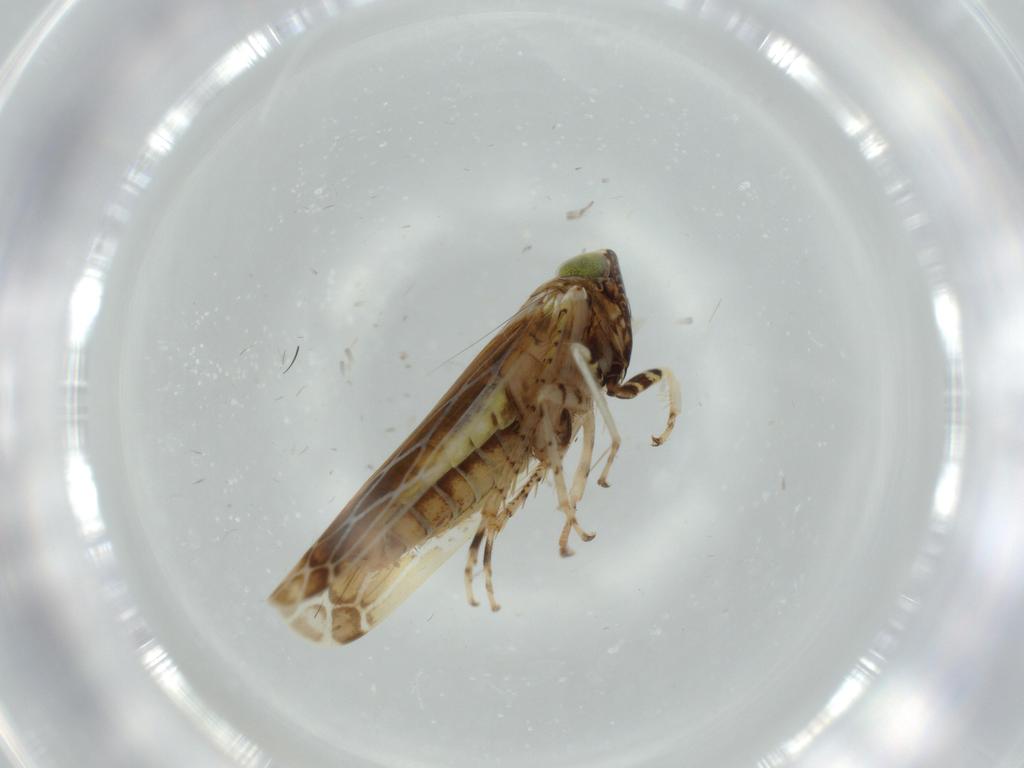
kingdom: Animalia
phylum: Arthropoda
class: Insecta
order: Hemiptera
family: Cicadellidae
